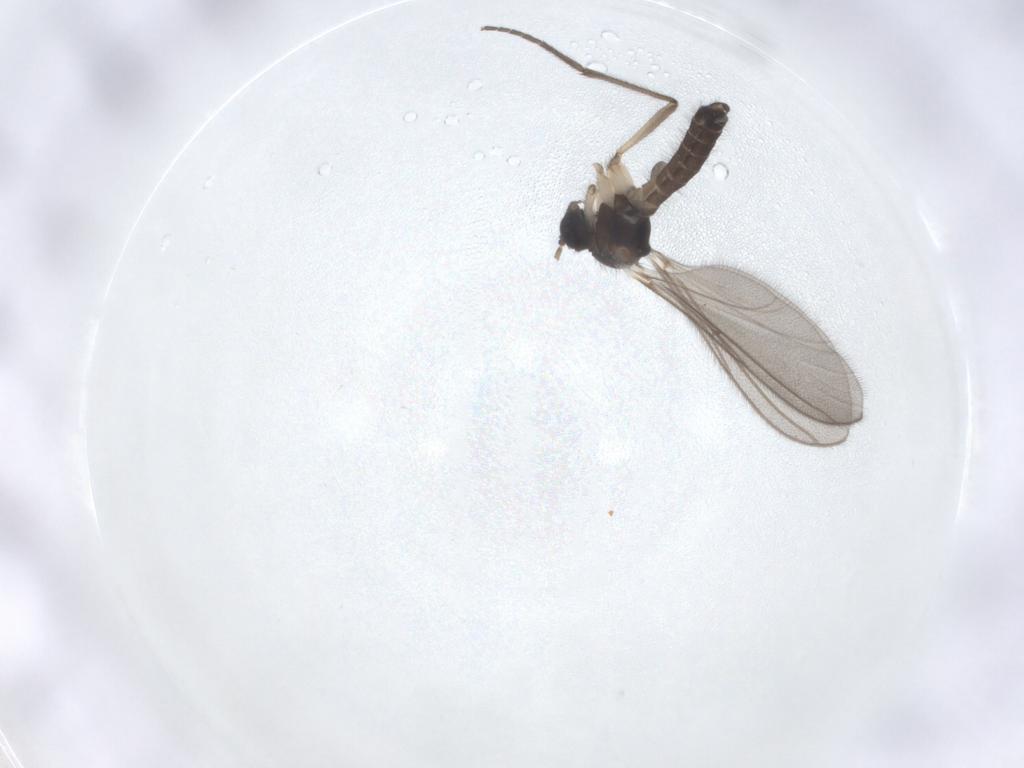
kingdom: Animalia
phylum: Arthropoda
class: Insecta
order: Diptera
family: Mycetophilidae
